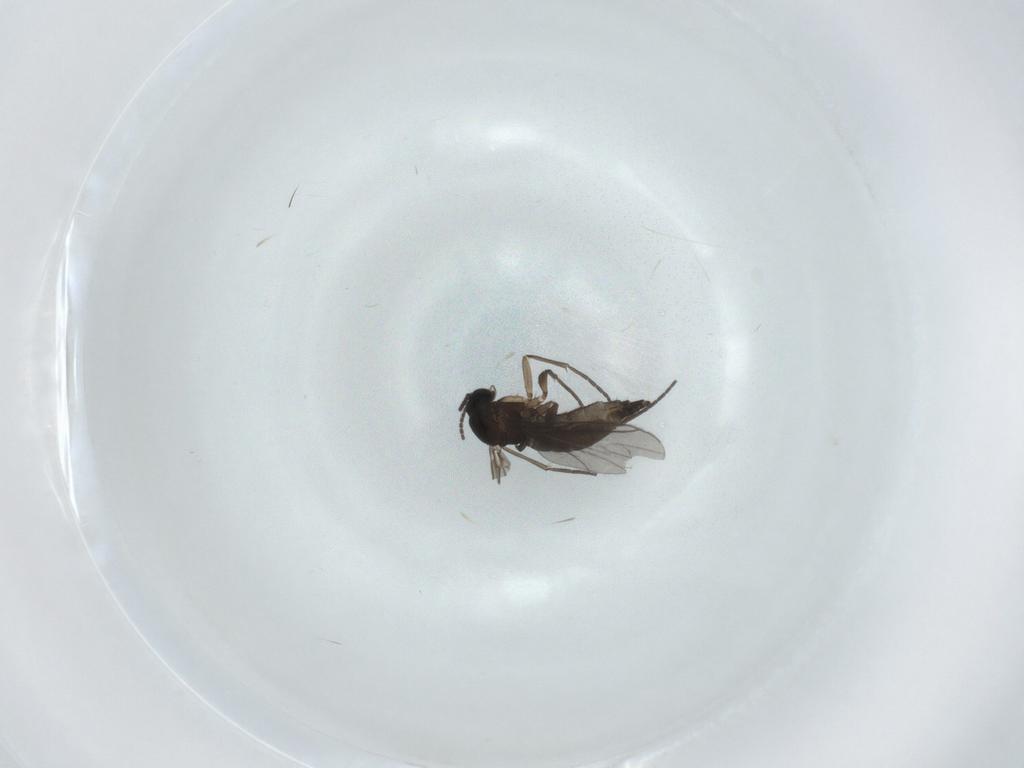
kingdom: Animalia
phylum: Arthropoda
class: Insecta
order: Diptera
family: Sciaridae
